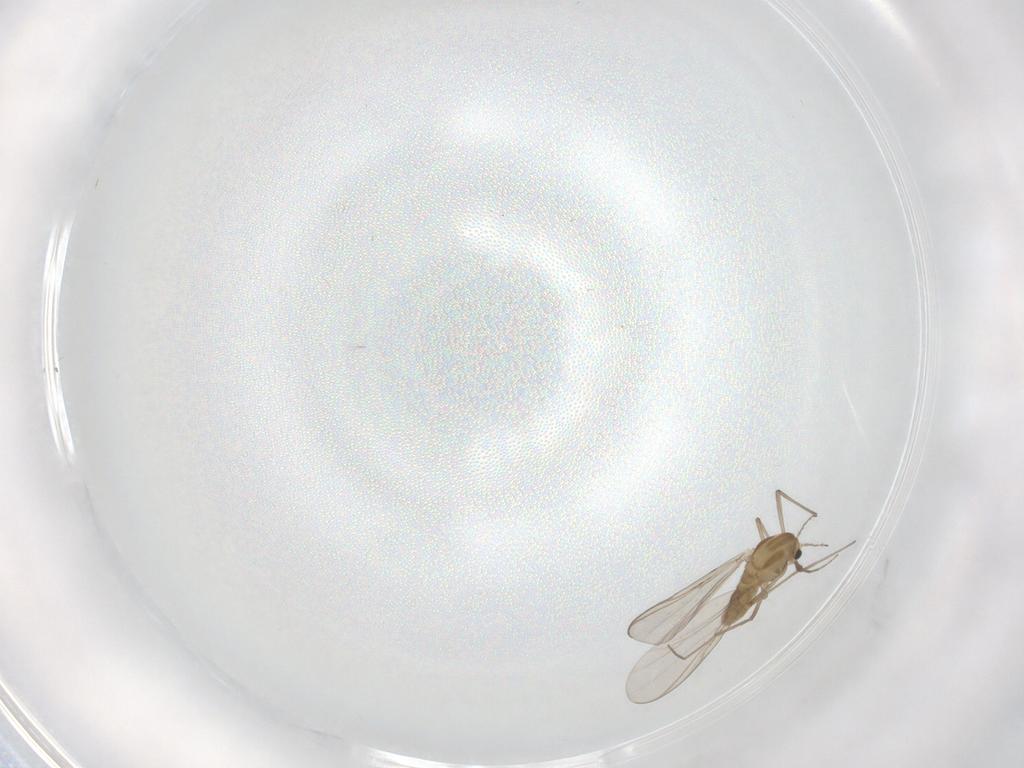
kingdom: Animalia
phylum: Arthropoda
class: Insecta
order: Diptera
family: Chironomidae
